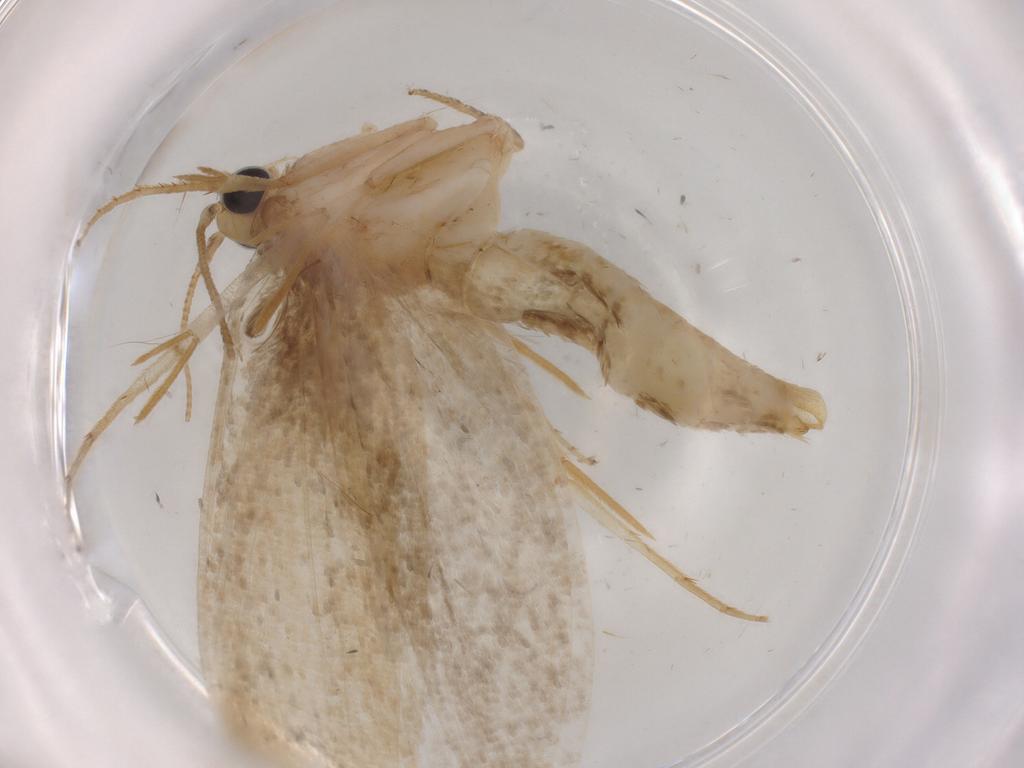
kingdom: Animalia
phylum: Arthropoda
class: Insecta
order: Lepidoptera
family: Tineidae
